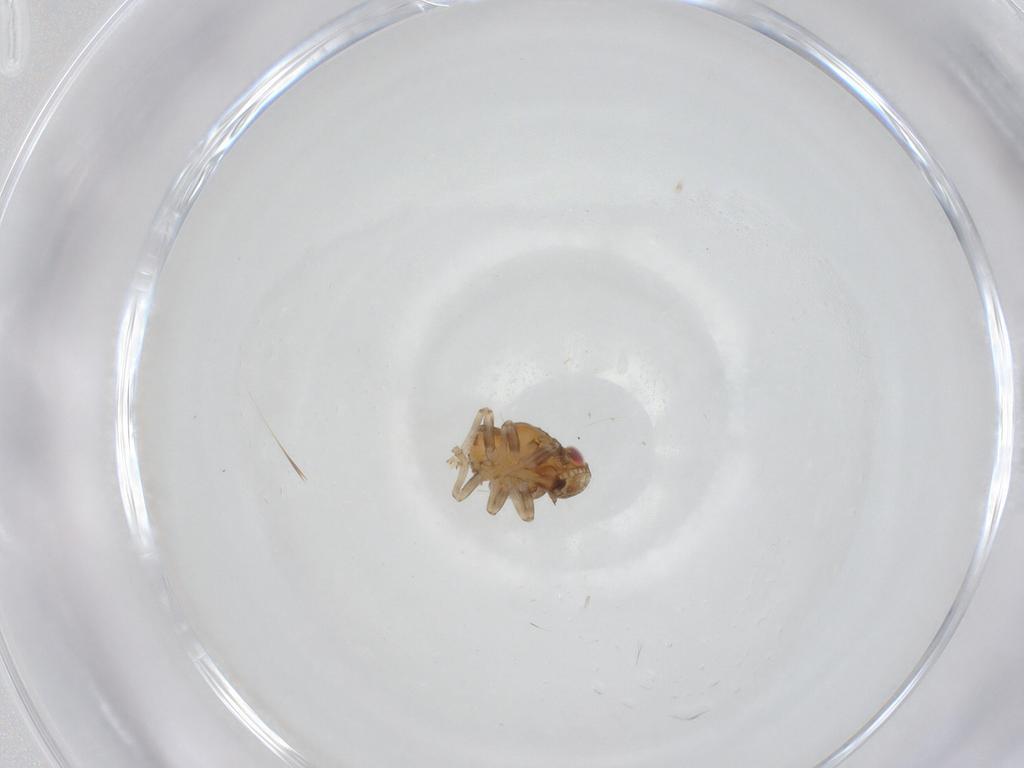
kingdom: Animalia
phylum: Arthropoda
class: Insecta
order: Hemiptera
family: Issidae
